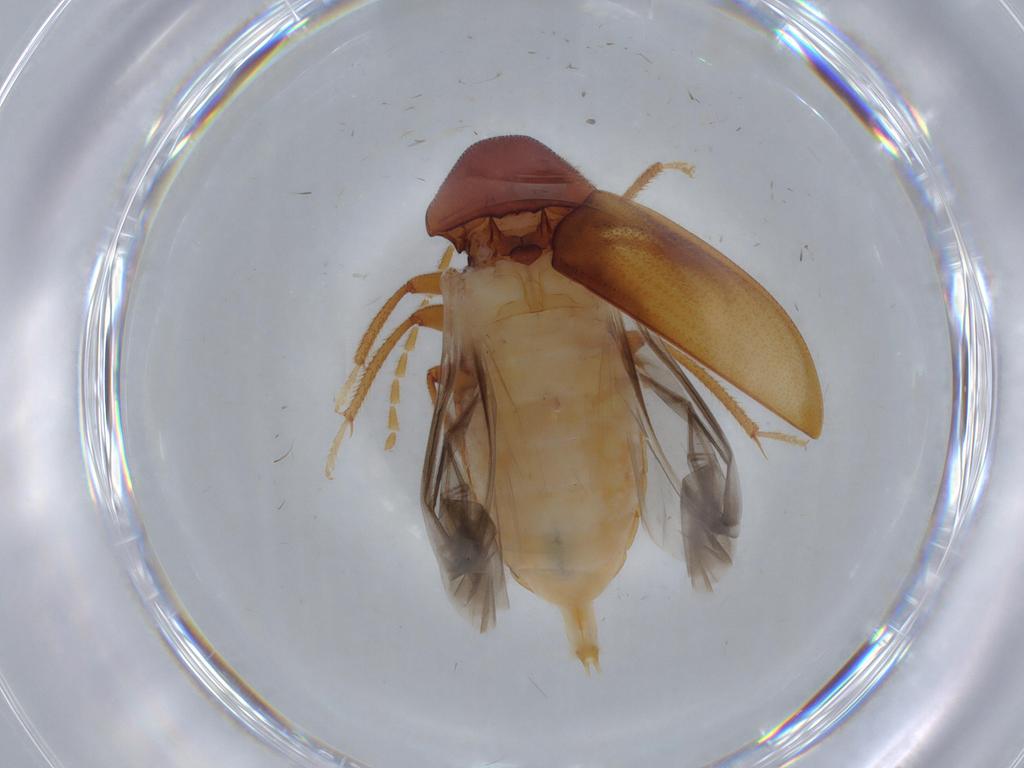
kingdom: Animalia
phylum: Arthropoda
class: Insecta
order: Coleoptera
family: Ptilodactylidae
